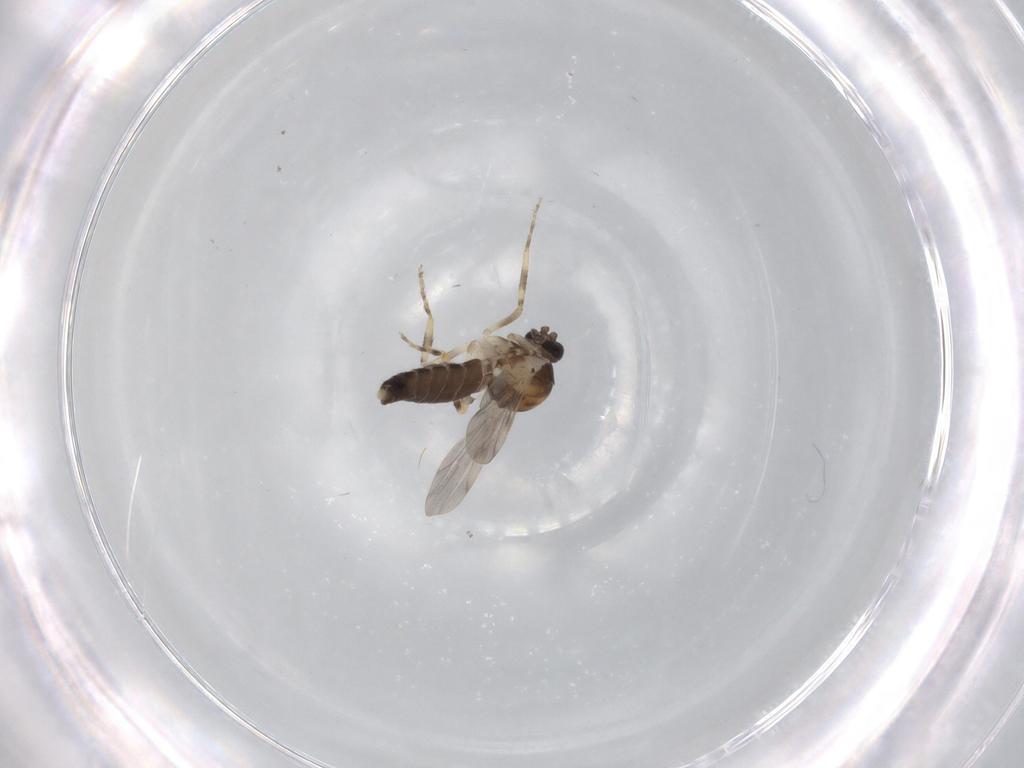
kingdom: Animalia
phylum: Arthropoda
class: Insecta
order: Diptera
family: Ceratopogonidae
